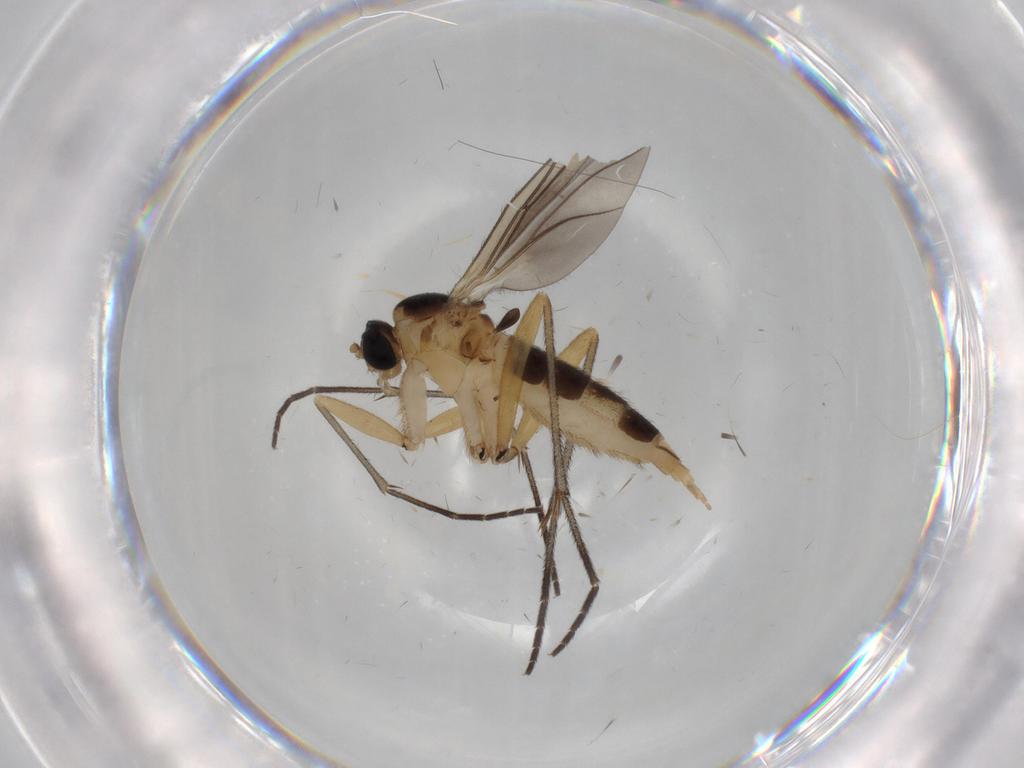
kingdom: Animalia
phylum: Arthropoda
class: Insecta
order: Diptera
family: Sciaridae
